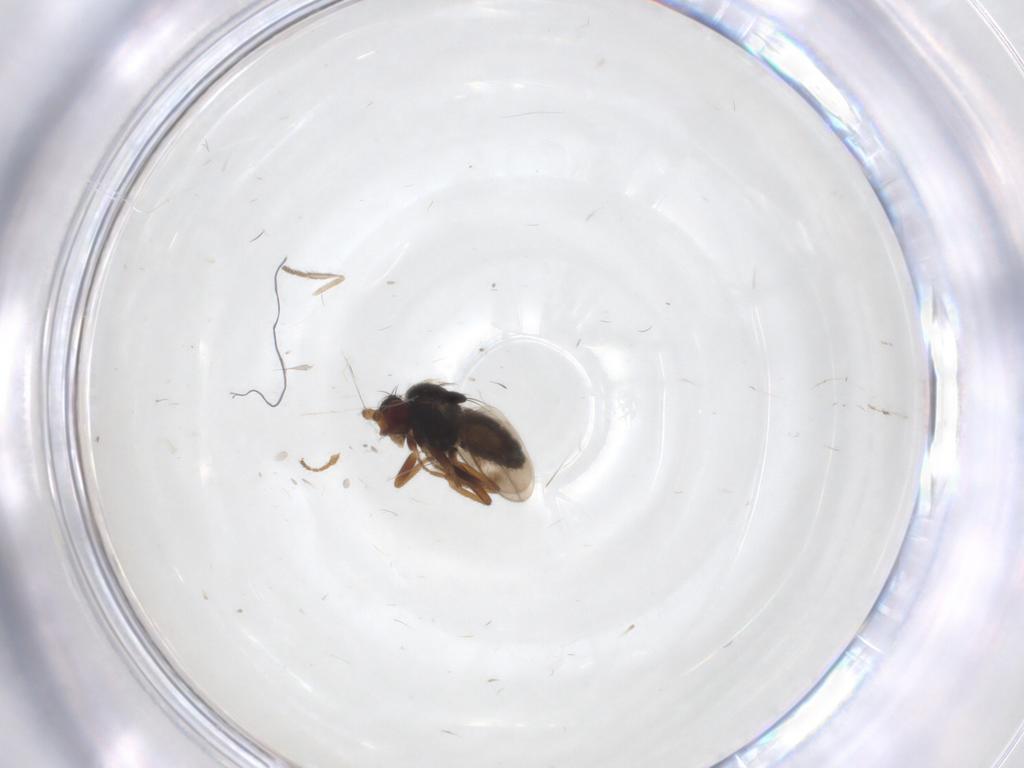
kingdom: Animalia
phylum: Arthropoda
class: Insecta
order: Diptera
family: Sphaeroceridae
